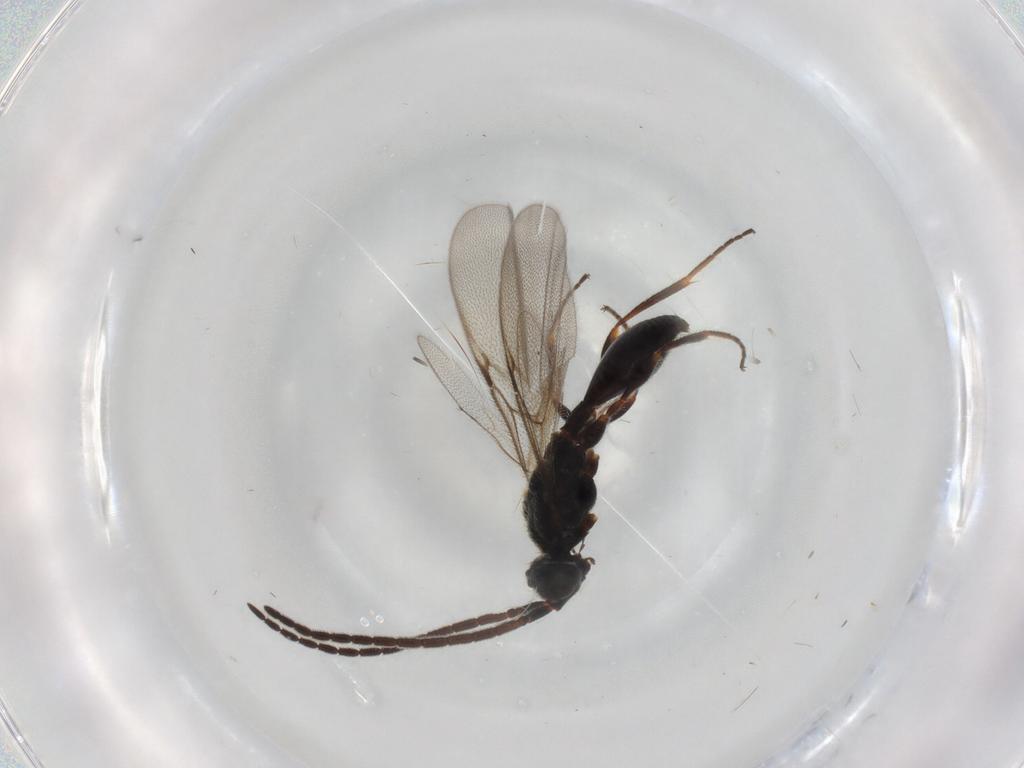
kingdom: Animalia
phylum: Arthropoda
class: Insecta
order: Hymenoptera
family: Diapriidae
